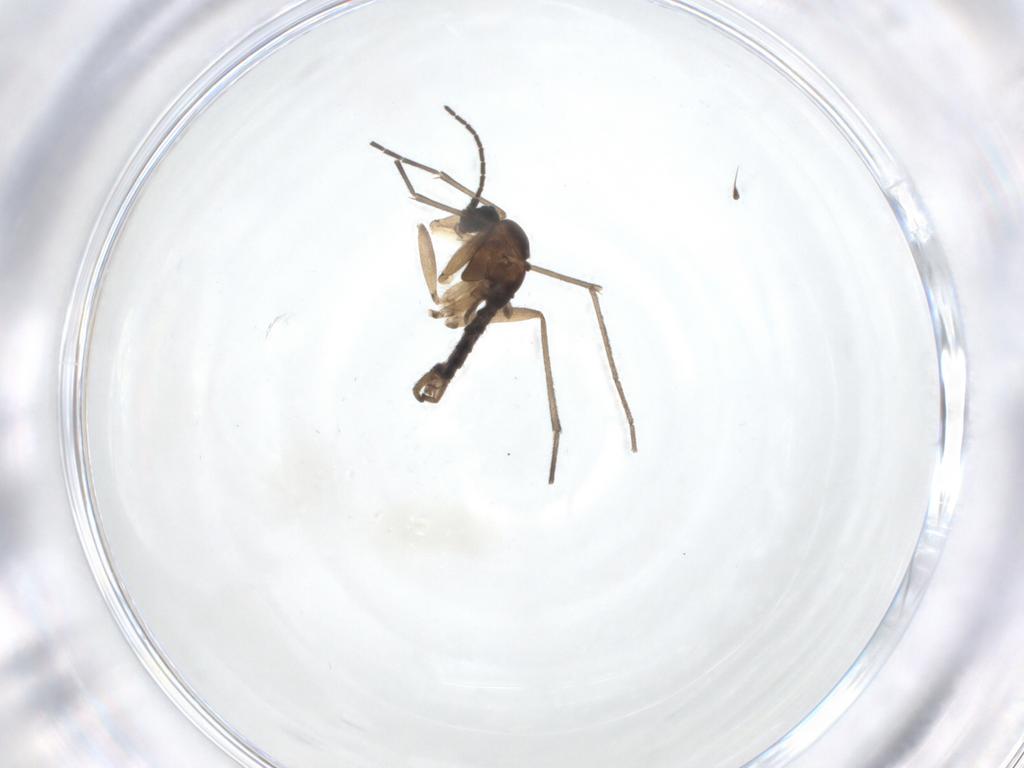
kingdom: Animalia
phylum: Arthropoda
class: Insecta
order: Diptera
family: Sciaridae
